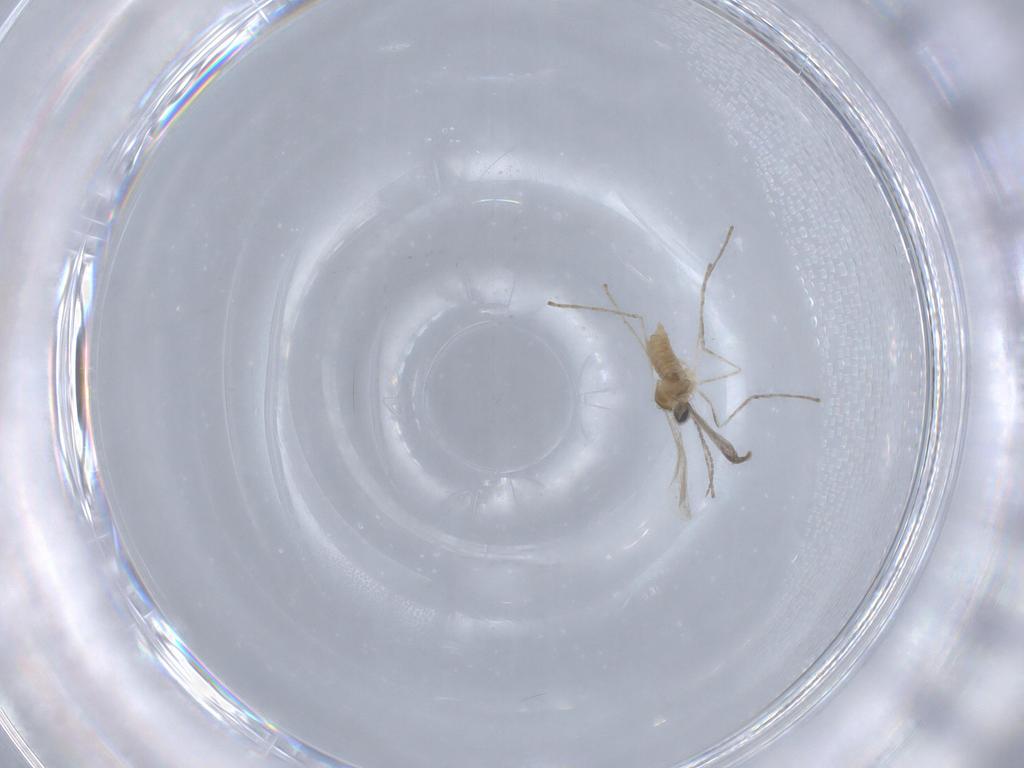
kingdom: Animalia
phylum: Arthropoda
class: Insecta
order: Diptera
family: Cecidomyiidae
